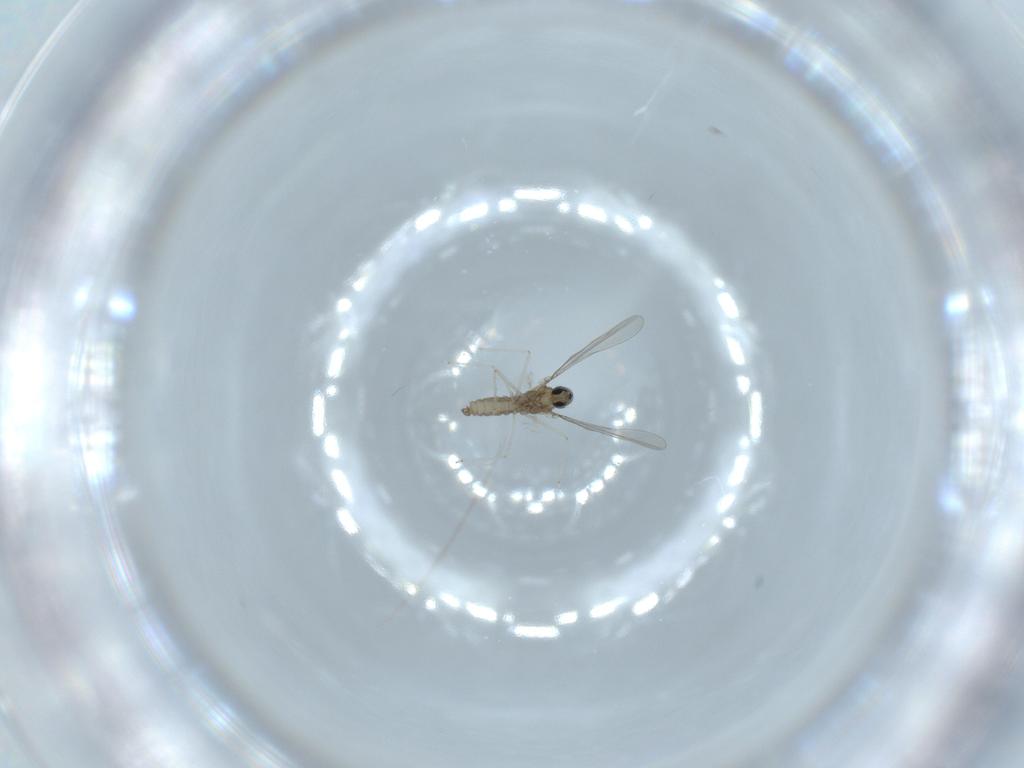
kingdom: Animalia
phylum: Arthropoda
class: Insecta
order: Diptera
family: Cecidomyiidae
